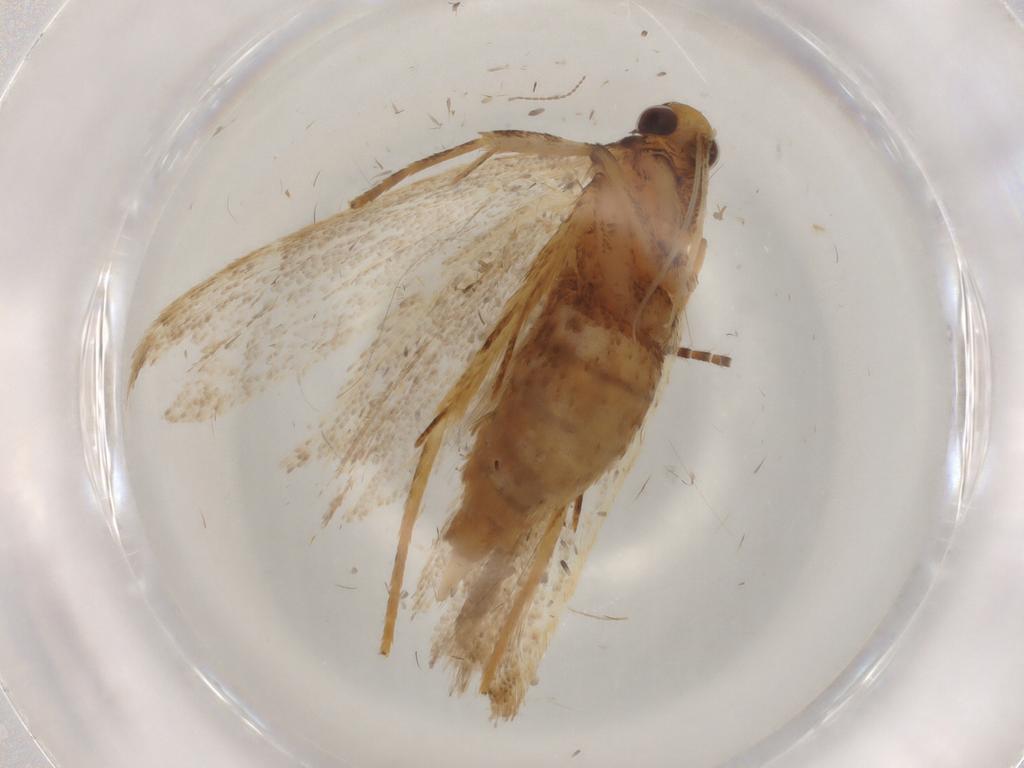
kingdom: Animalia
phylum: Arthropoda
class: Insecta
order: Lepidoptera
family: Lecithoceridae
